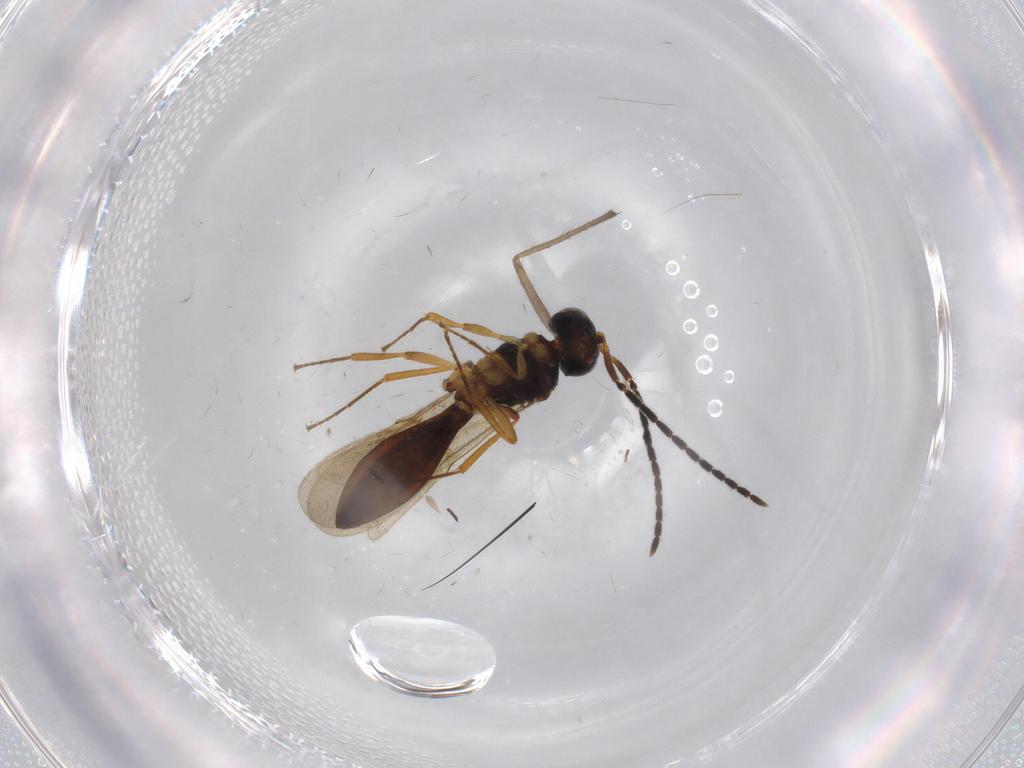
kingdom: Animalia
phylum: Arthropoda
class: Insecta
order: Hymenoptera
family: Scelionidae
